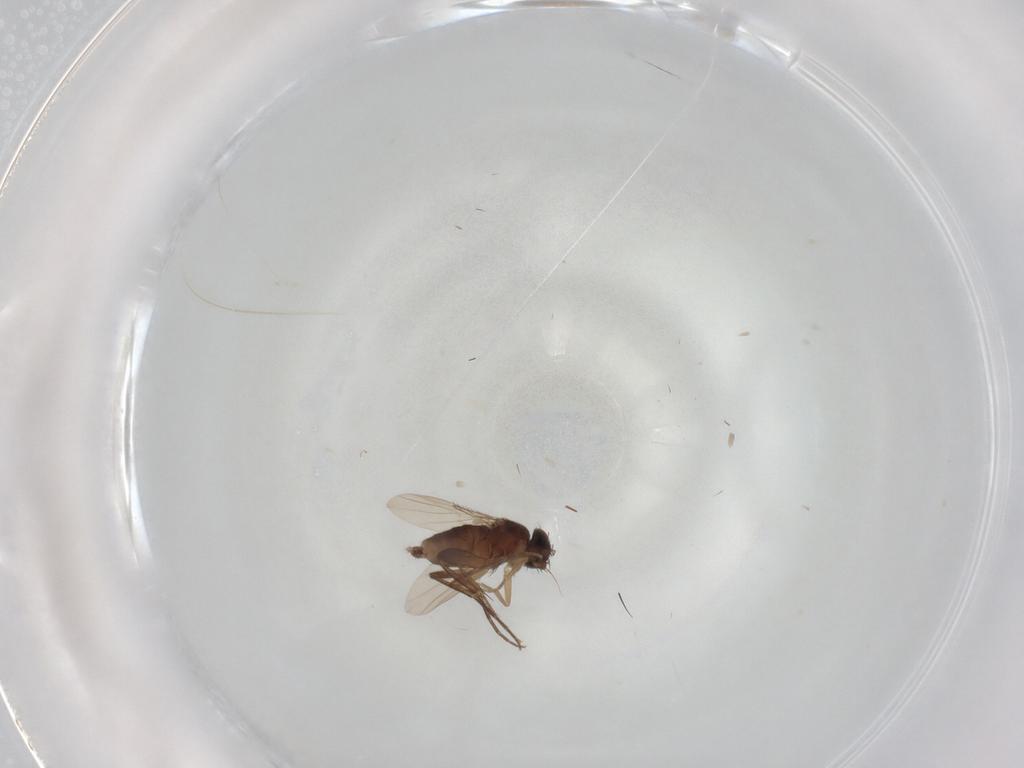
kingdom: Animalia
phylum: Arthropoda
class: Insecta
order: Diptera
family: Phoridae
